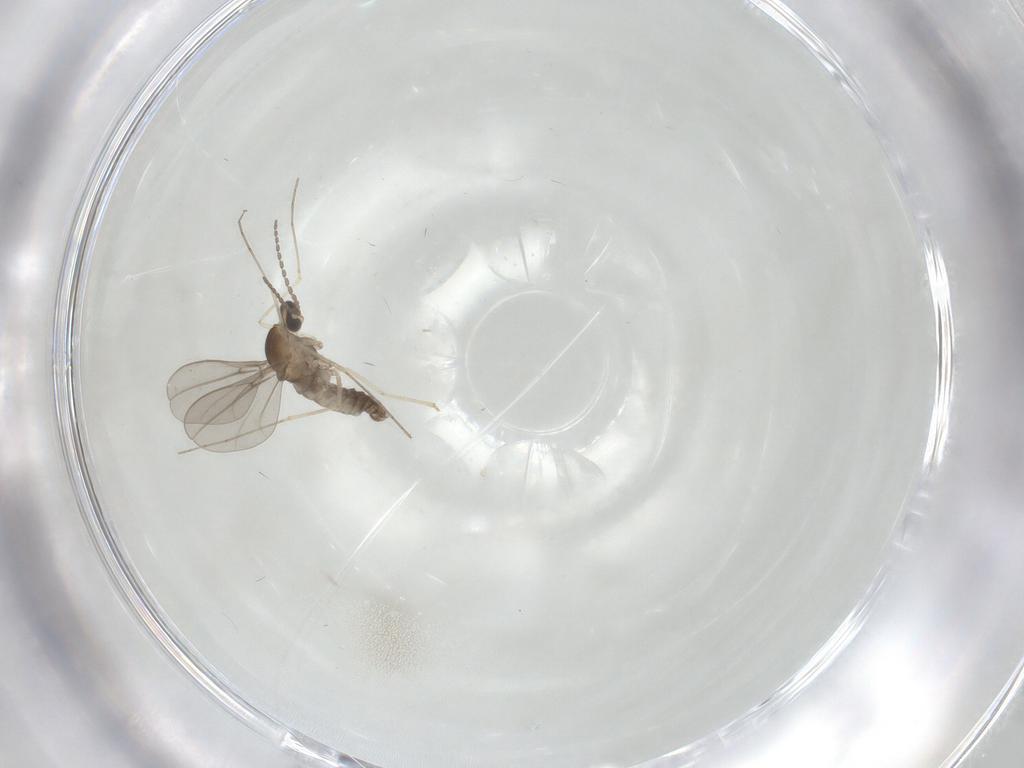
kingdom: Animalia
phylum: Arthropoda
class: Insecta
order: Diptera
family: Cecidomyiidae
